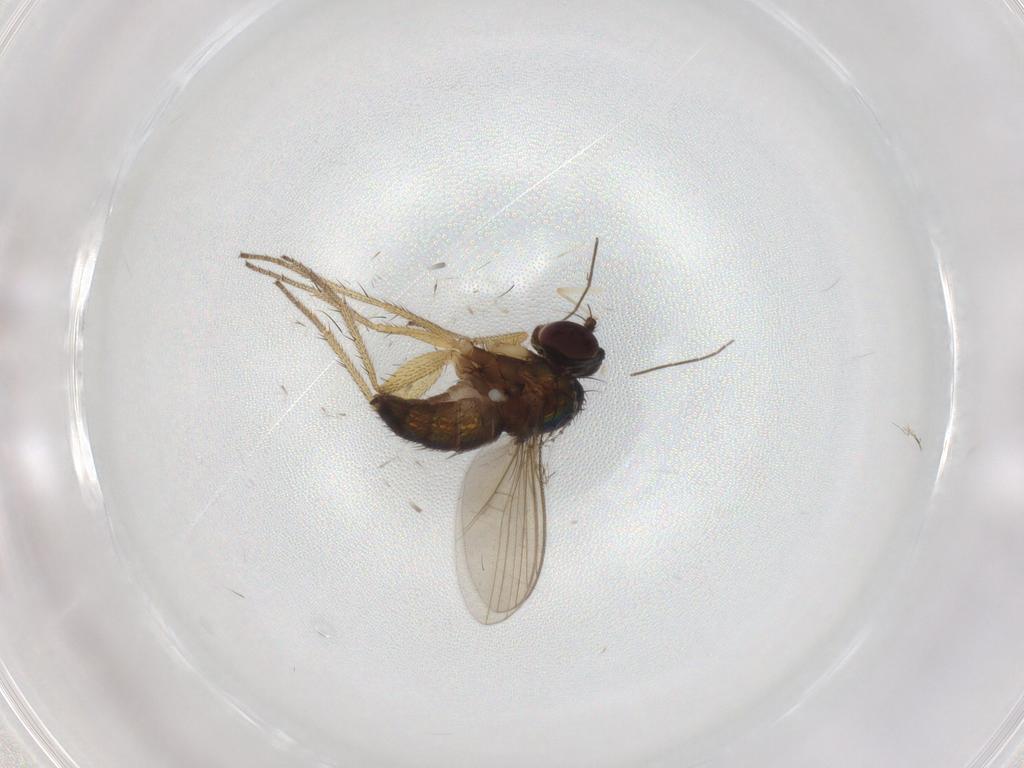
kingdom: Animalia
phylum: Arthropoda
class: Insecta
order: Diptera
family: Sciaridae
